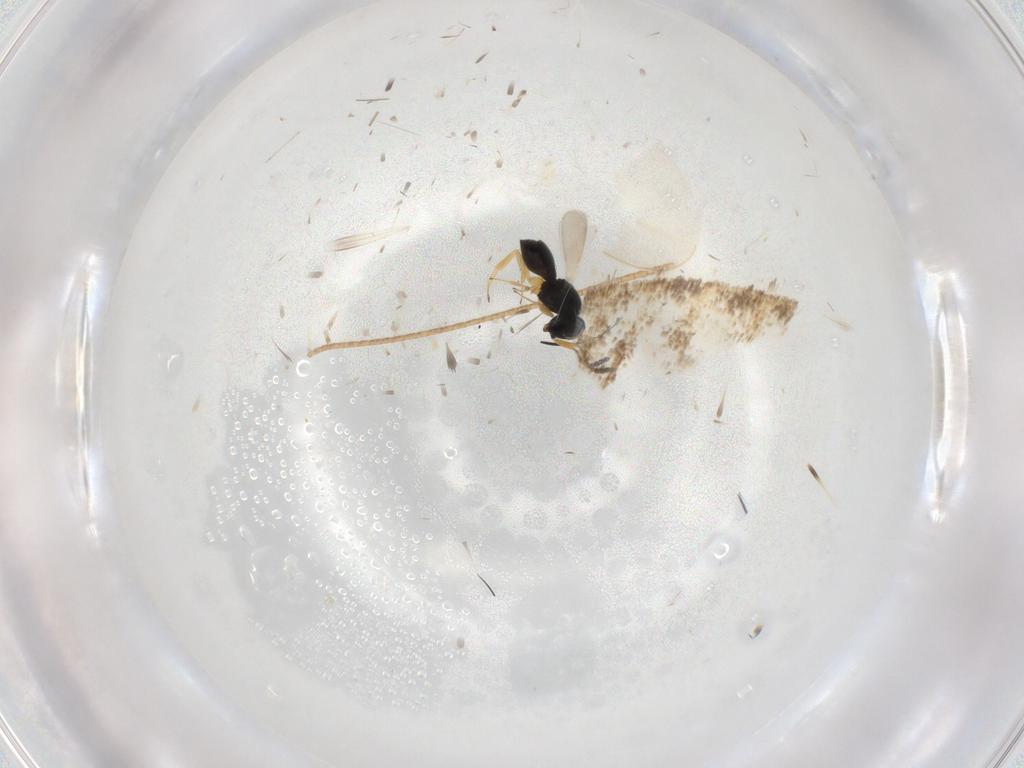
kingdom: Animalia
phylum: Arthropoda
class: Insecta
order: Hymenoptera
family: Scelionidae
